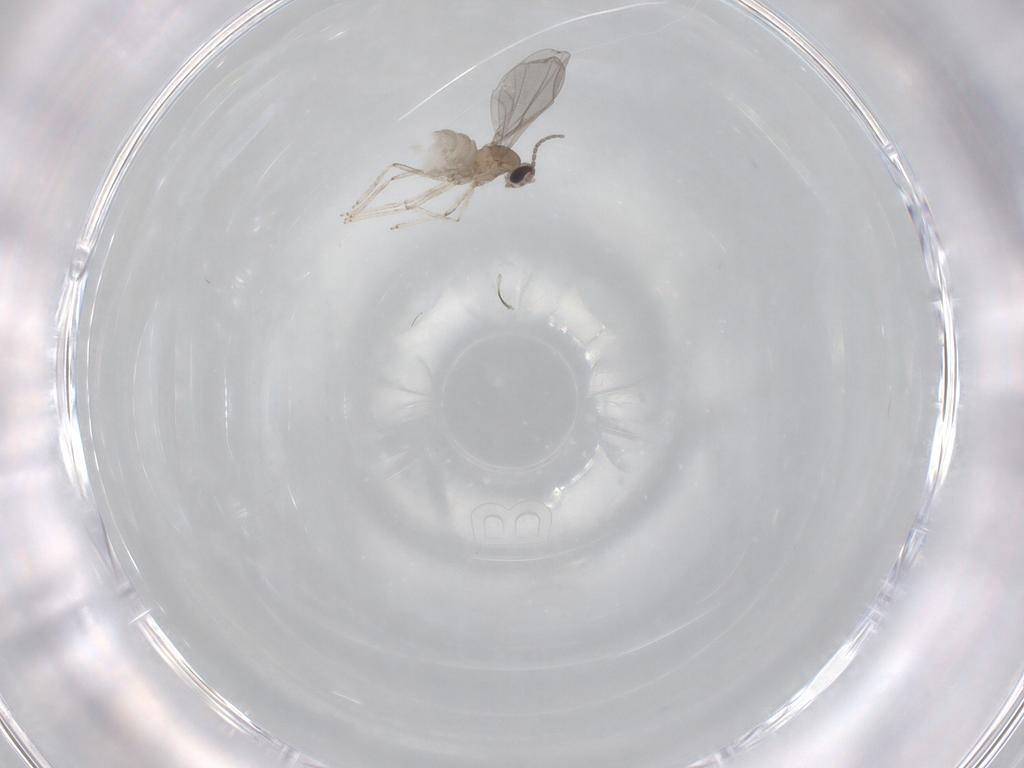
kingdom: Animalia
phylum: Arthropoda
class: Insecta
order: Diptera
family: Cecidomyiidae
